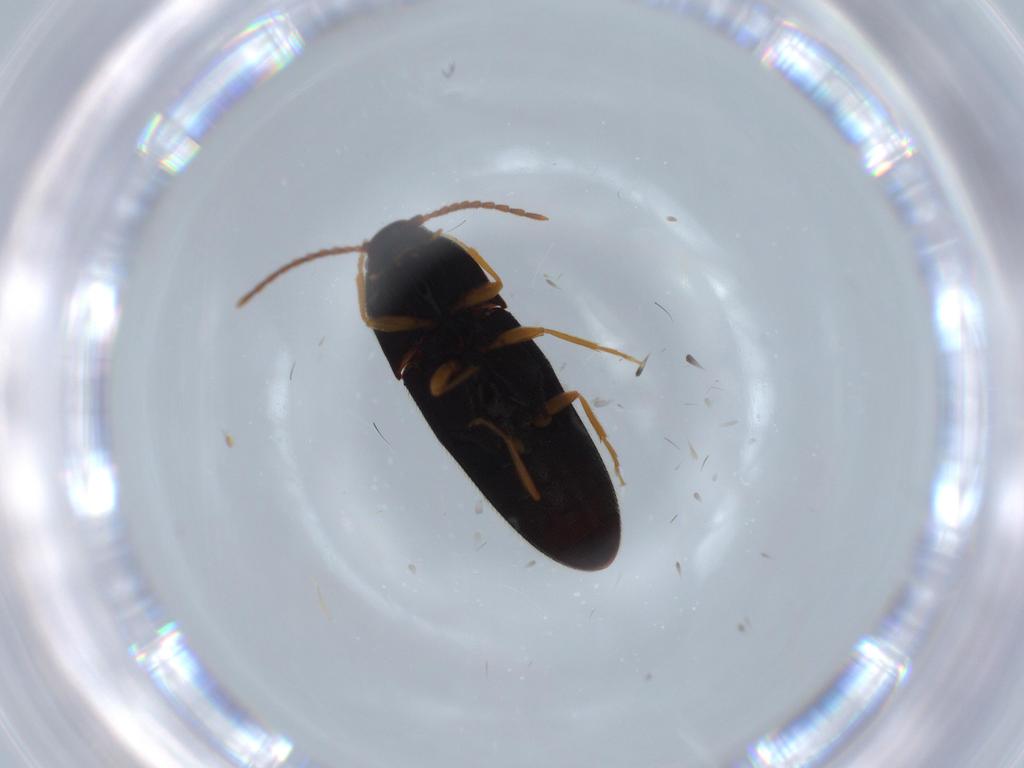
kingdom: Animalia
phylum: Arthropoda
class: Insecta
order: Coleoptera
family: Elateridae
